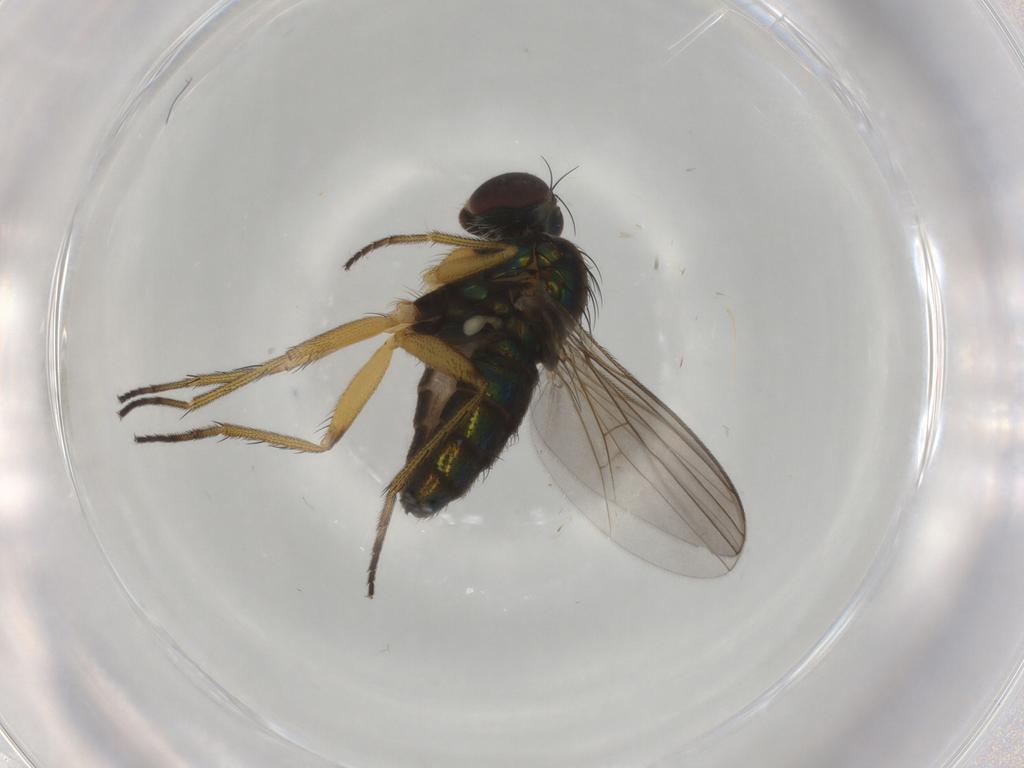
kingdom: Animalia
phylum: Arthropoda
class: Insecta
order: Diptera
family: Dolichopodidae
